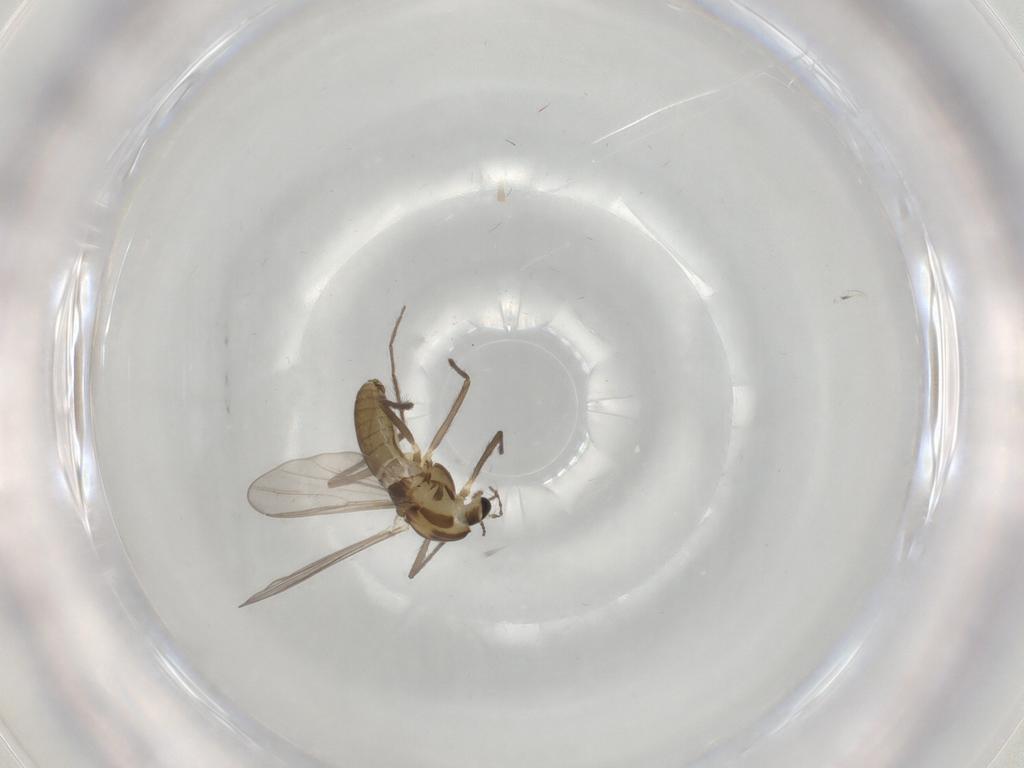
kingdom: Animalia
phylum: Arthropoda
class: Insecta
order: Diptera
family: Chironomidae
